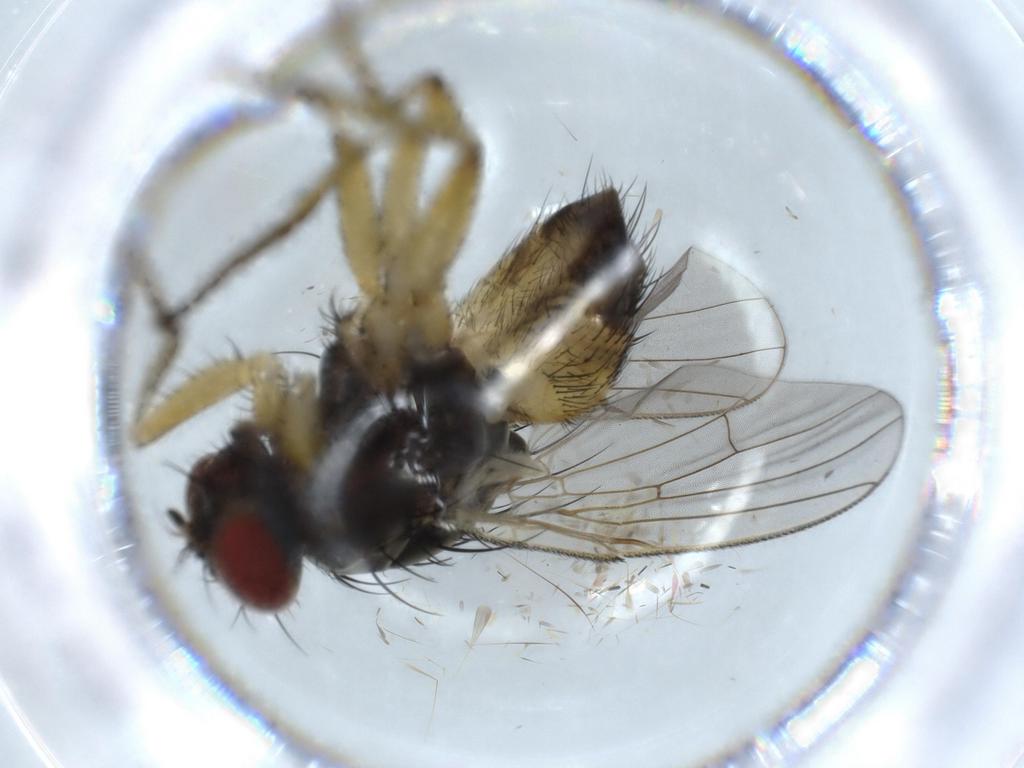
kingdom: Animalia
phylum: Arthropoda
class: Insecta
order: Diptera
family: Muscidae
